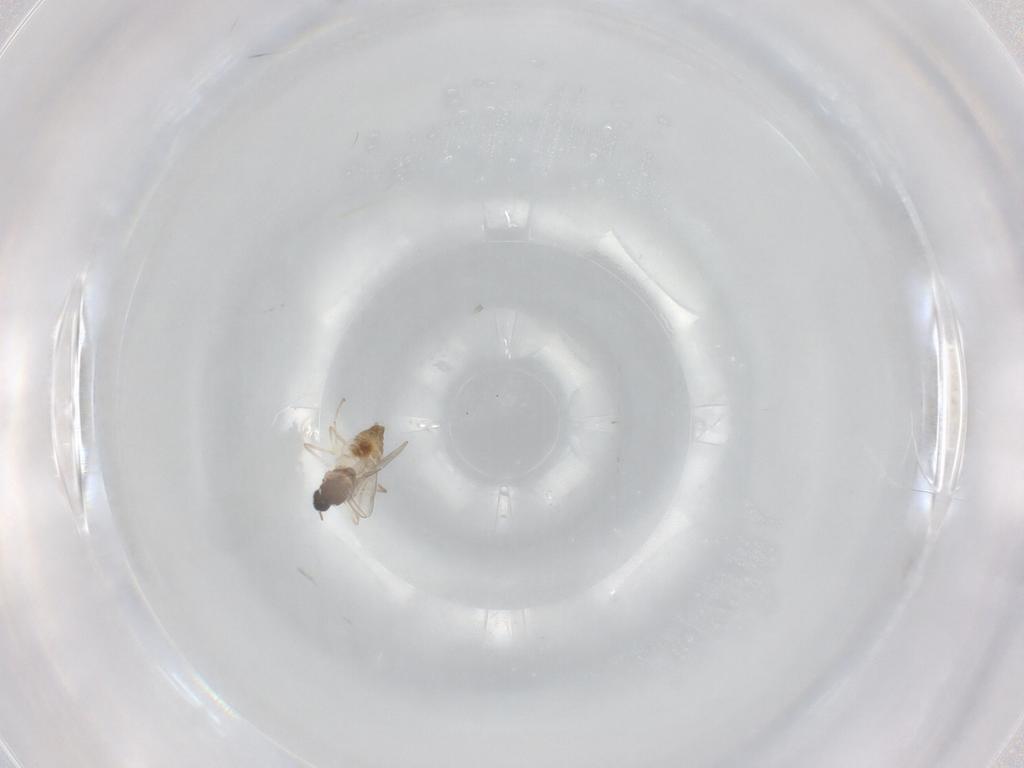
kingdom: Animalia
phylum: Arthropoda
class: Insecta
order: Diptera
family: Cecidomyiidae
